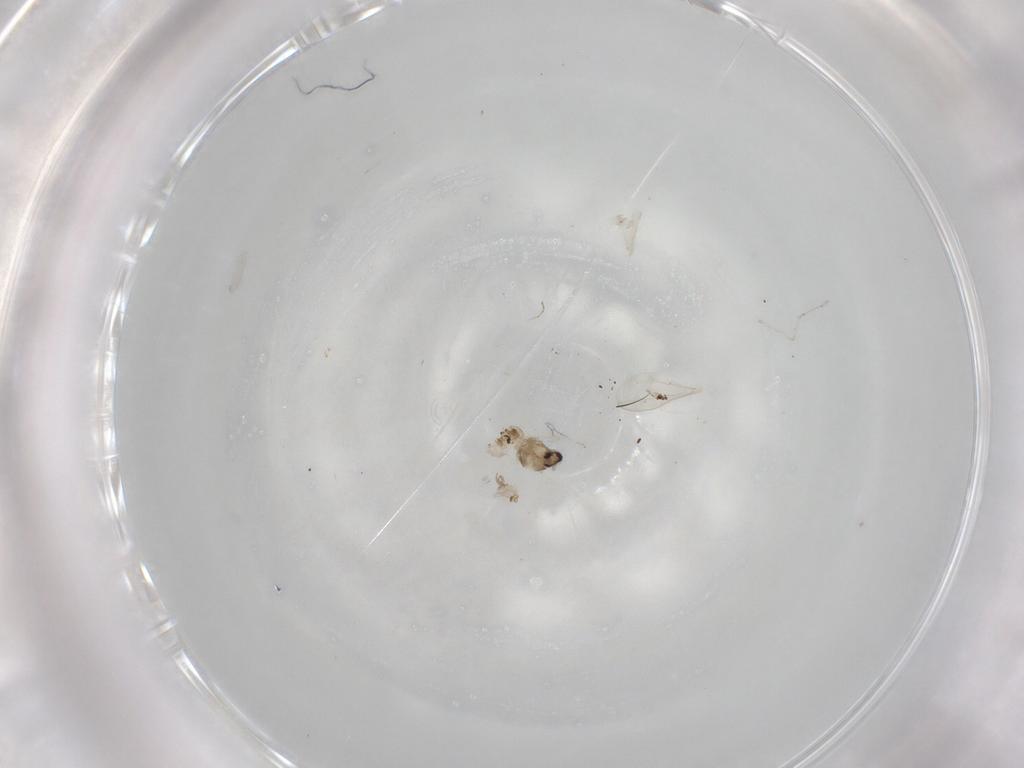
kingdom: Animalia
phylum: Arthropoda
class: Insecta
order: Diptera
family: Cecidomyiidae
